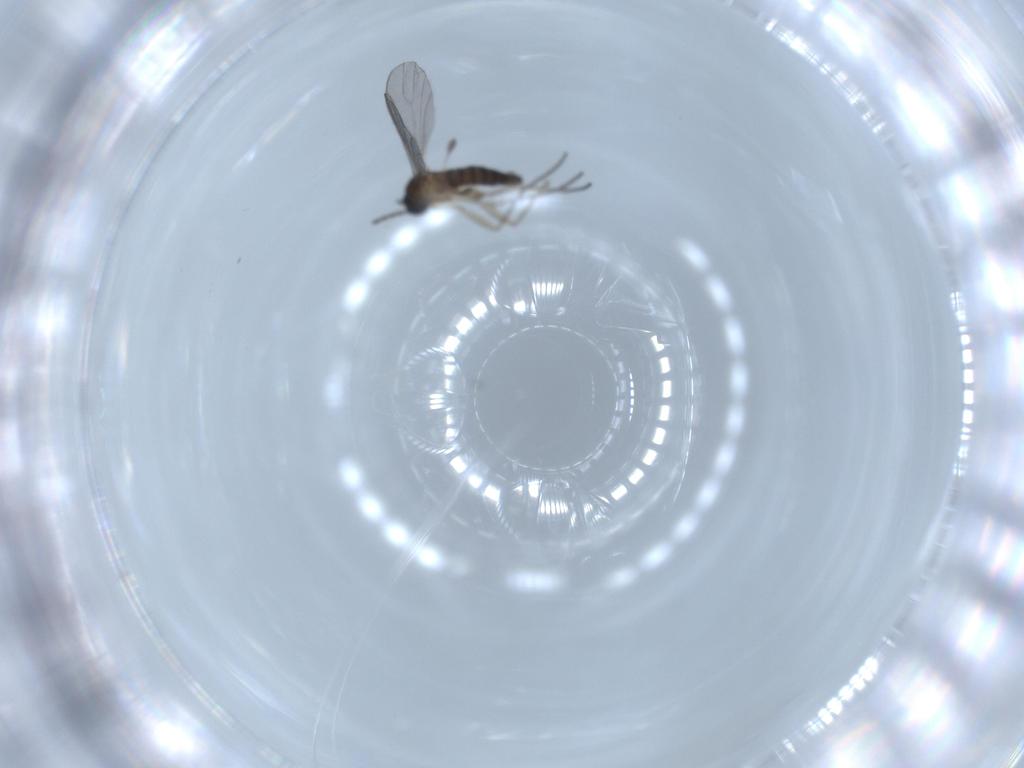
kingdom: Animalia
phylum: Arthropoda
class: Insecta
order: Diptera
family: Sciaridae
